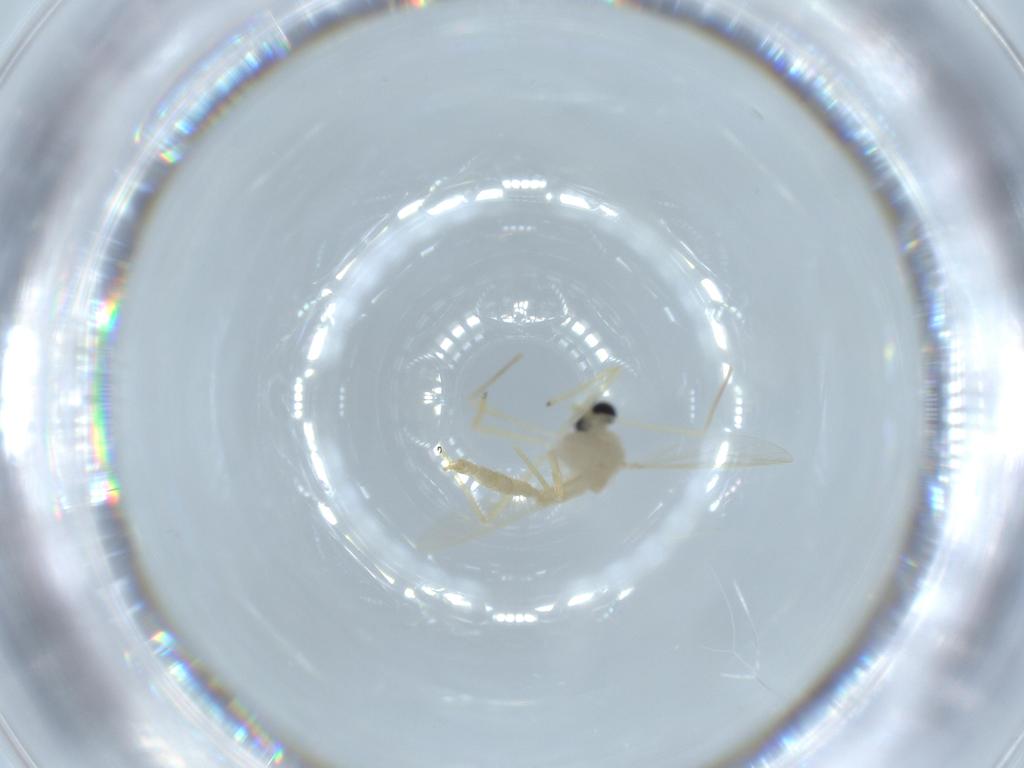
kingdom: Animalia
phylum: Arthropoda
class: Insecta
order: Diptera
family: Chironomidae
